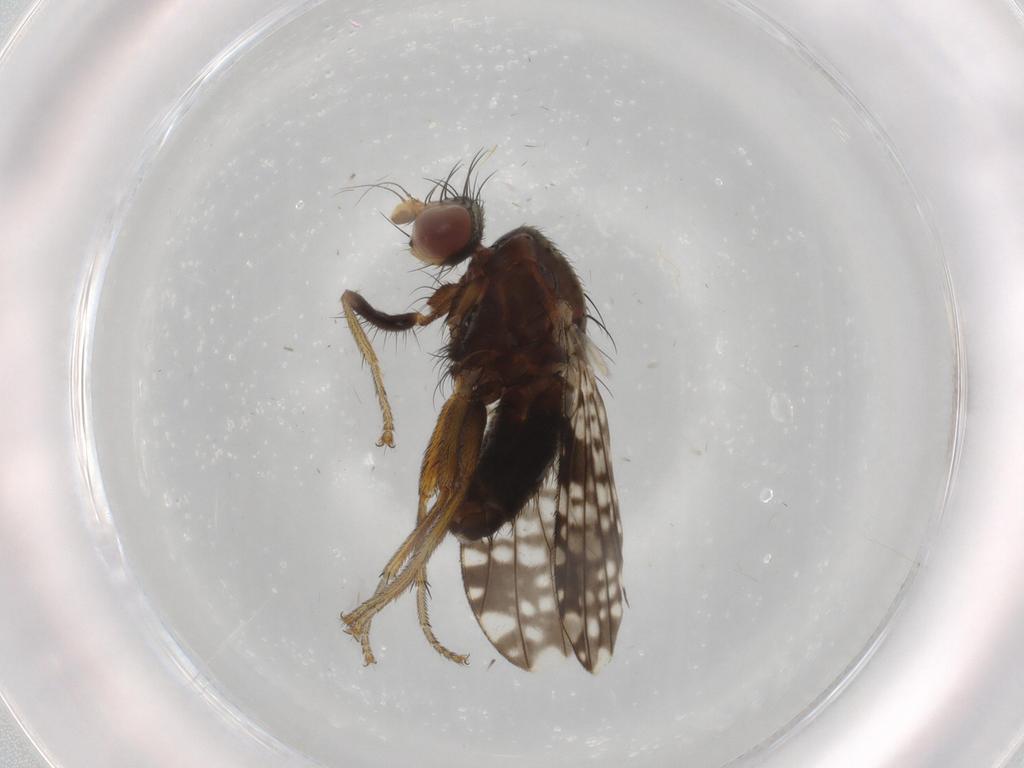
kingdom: Animalia
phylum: Arthropoda
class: Insecta
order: Diptera
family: Tephritidae
